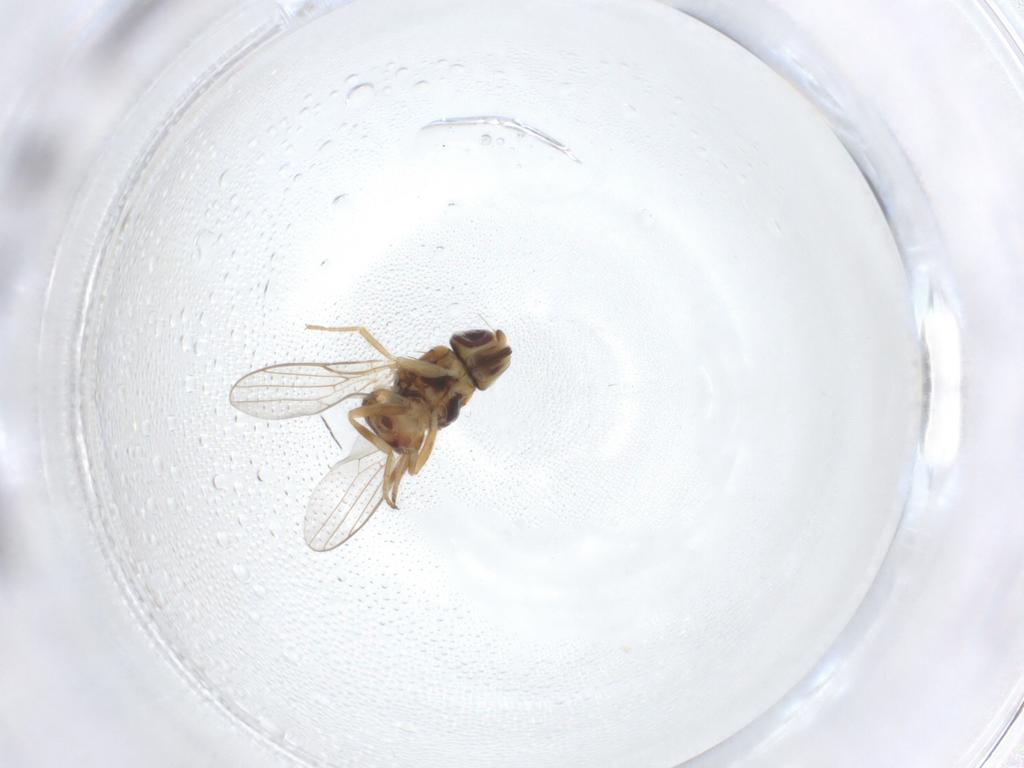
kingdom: Animalia
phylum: Arthropoda
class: Insecta
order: Diptera
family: Chloropidae
